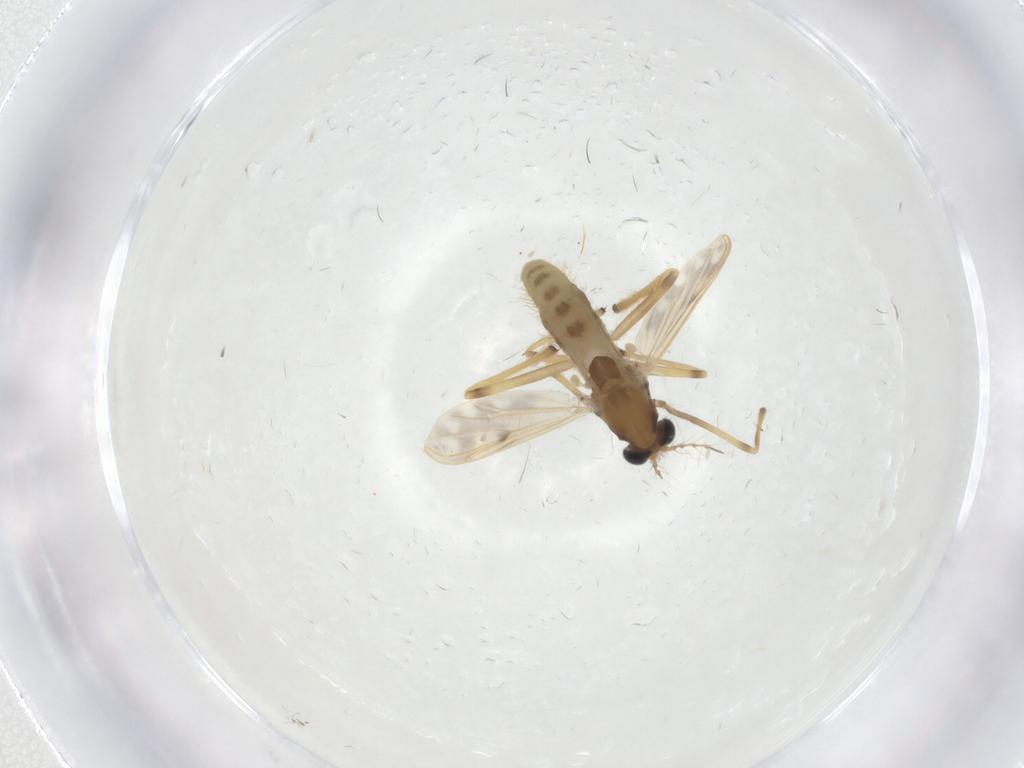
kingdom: Animalia
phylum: Arthropoda
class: Insecta
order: Diptera
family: Chironomidae
